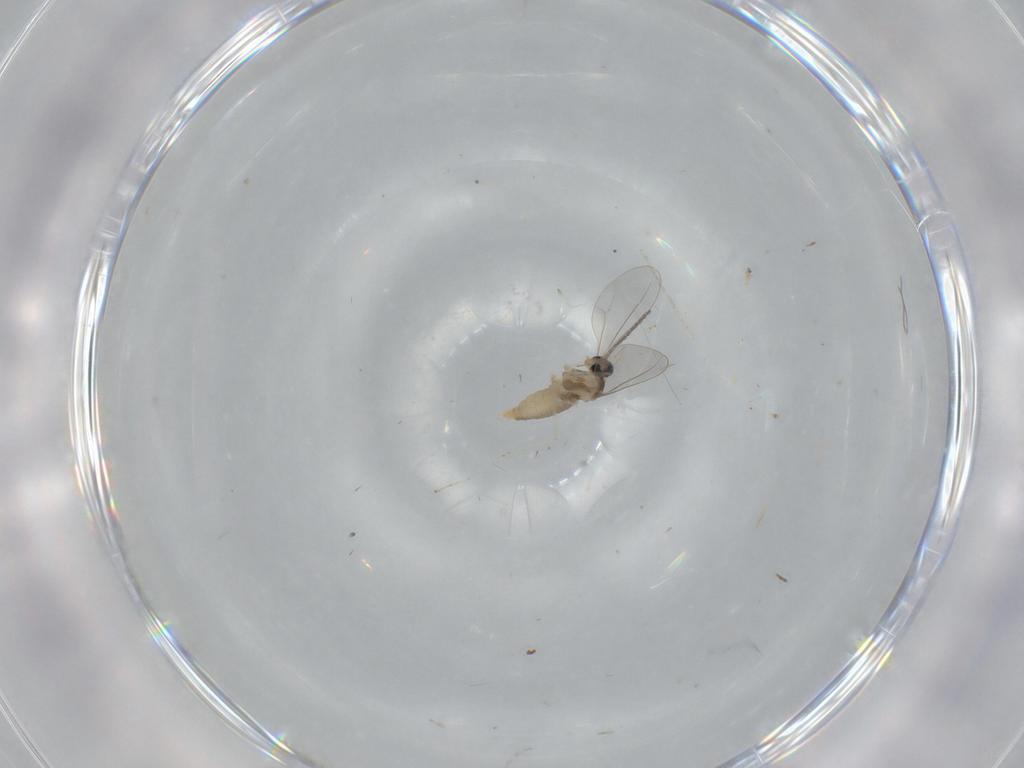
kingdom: Animalia
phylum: Arthropoda
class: Insecta
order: Diptera
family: Cecidomyiidae
